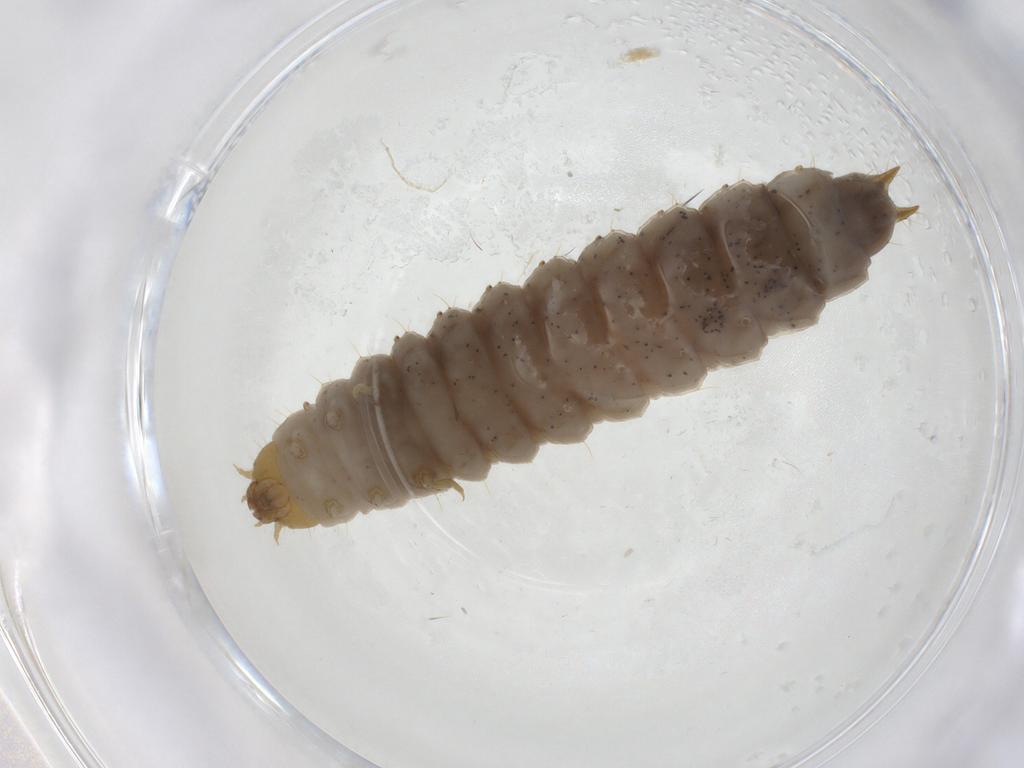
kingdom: Animalia
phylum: Arthropoda
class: Insecta
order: Coleoptera
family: Nitidulidae
